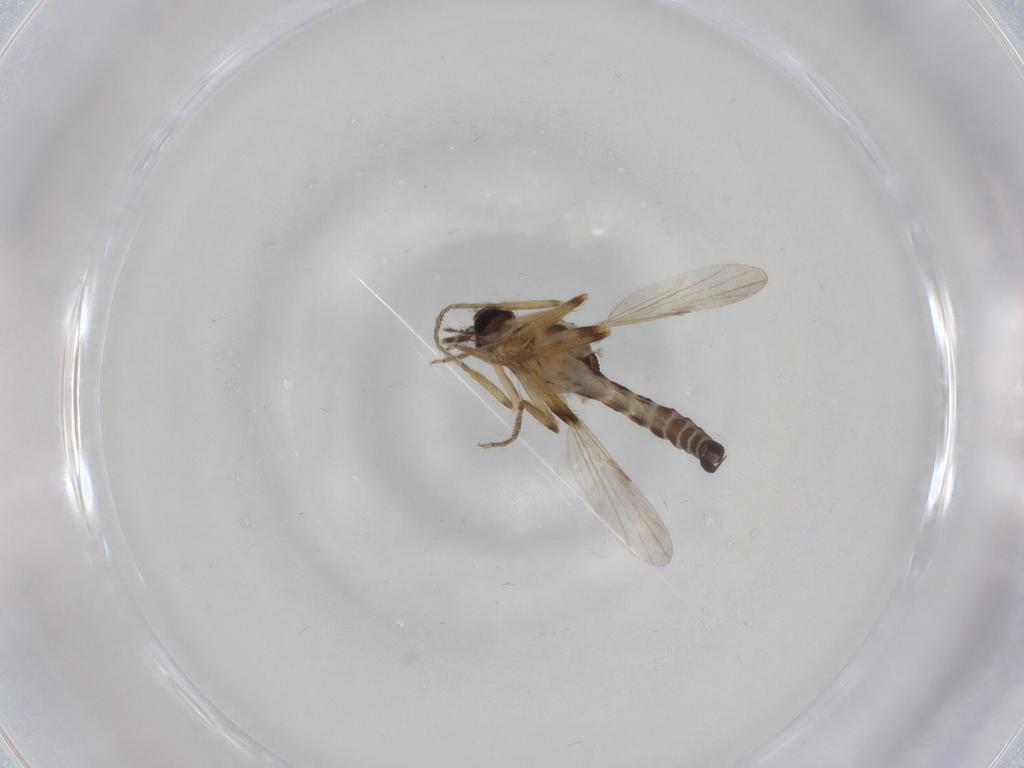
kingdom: Animalia
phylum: Arthropoda
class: Insecta
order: Diptera
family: Ceratopogonidae
